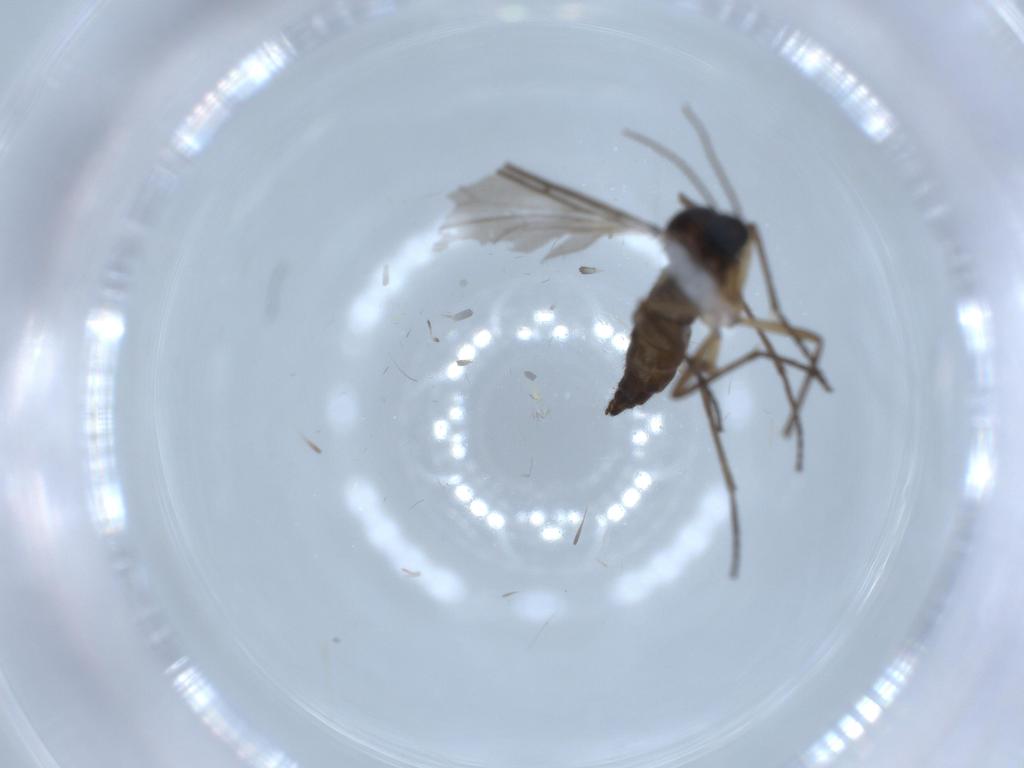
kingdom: Animalia
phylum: Arthropoda
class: Insecta
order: Diptera
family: Sciaridae
